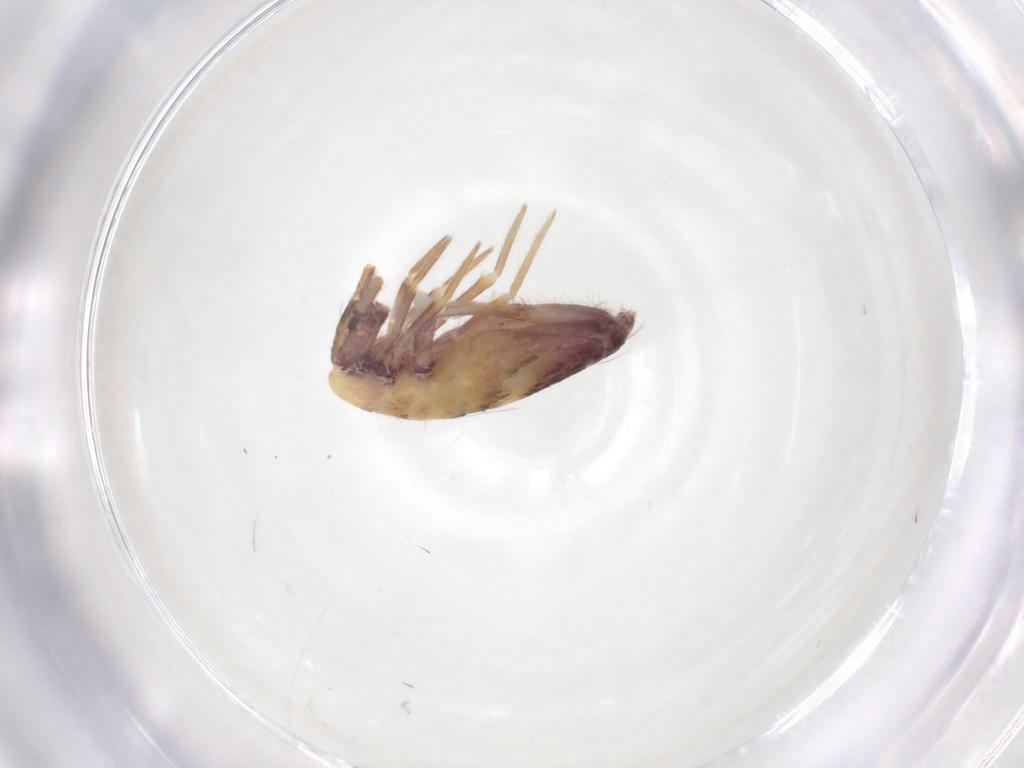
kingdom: Animalia
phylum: Arthropoda
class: Collembola
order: Entomobryomorpha
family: Entomobryidae
